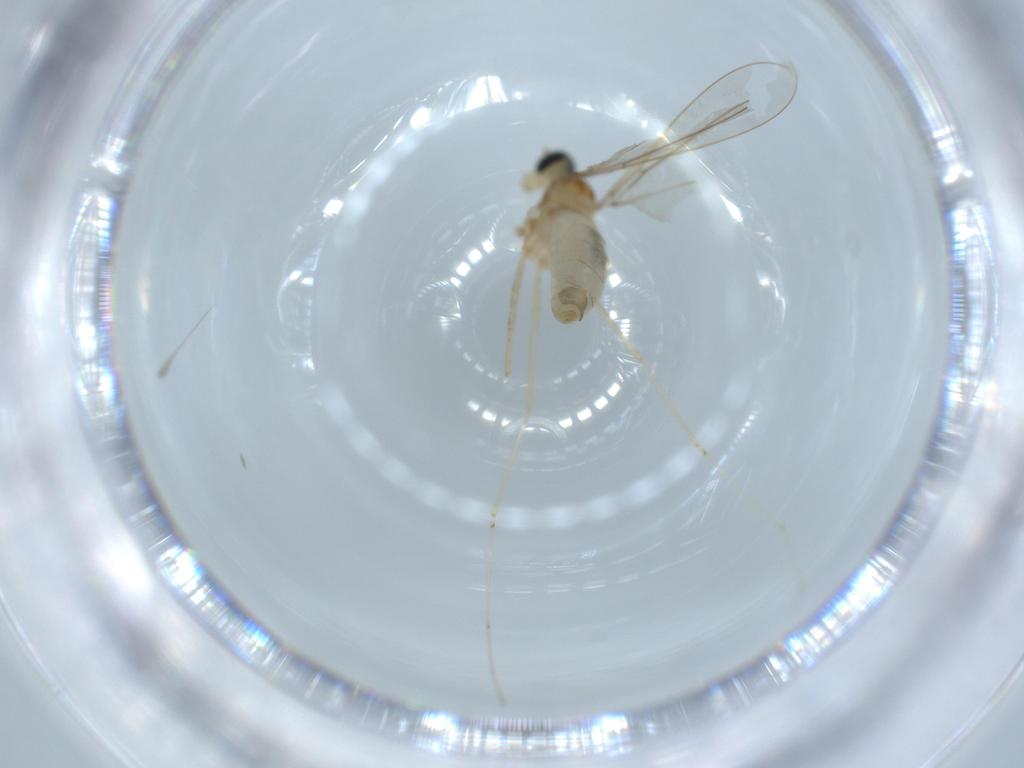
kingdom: Animalia
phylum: Arthropoda
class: Insecta
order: Diptera
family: Cecidomyiidae
